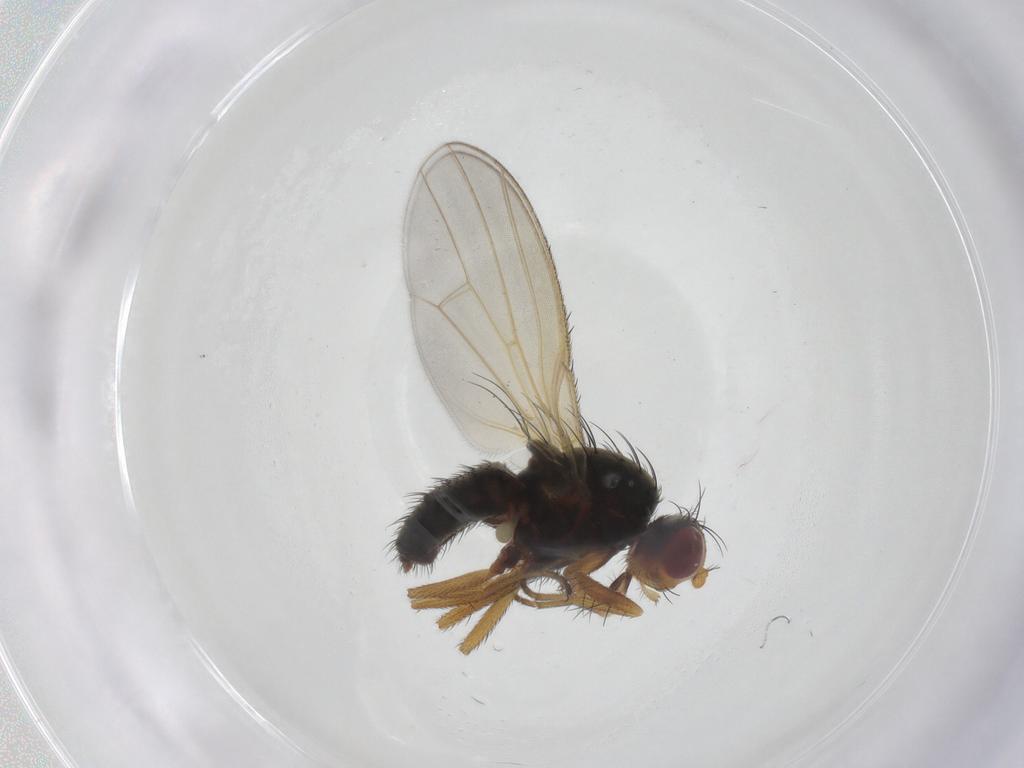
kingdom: Animalia
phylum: Arthropoda
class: Insecta
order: Diptera
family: Heleomyzidae
